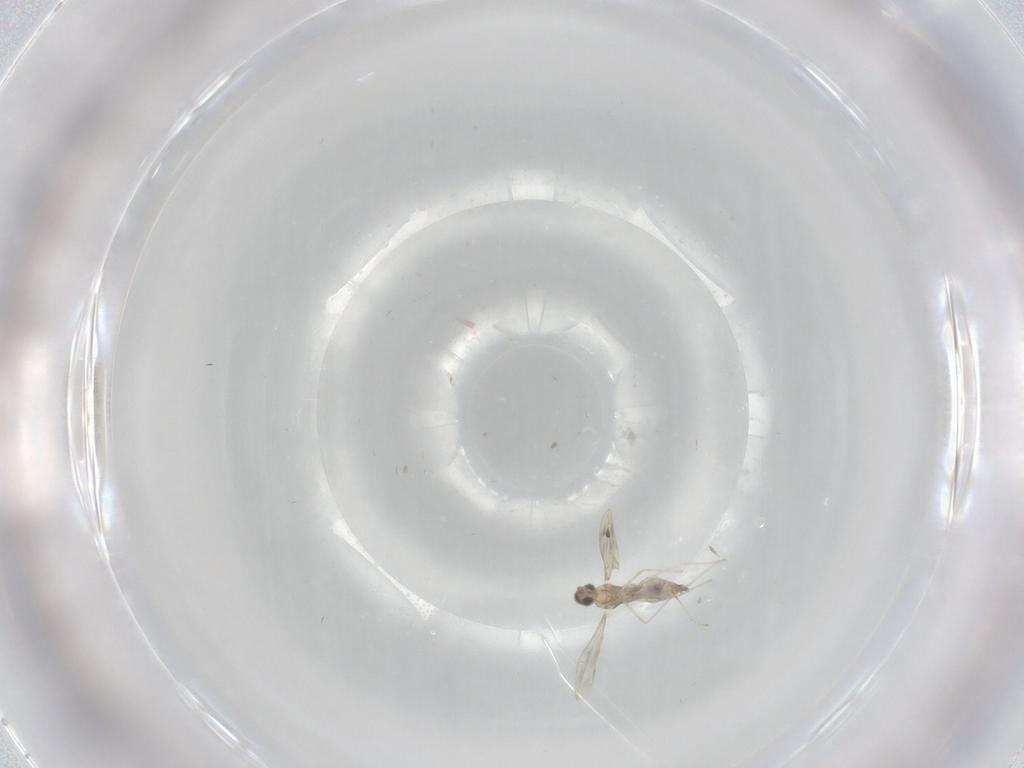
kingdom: Animalia
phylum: Arthropoda
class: Insecta
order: Diptera
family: Cecidomyiidae
